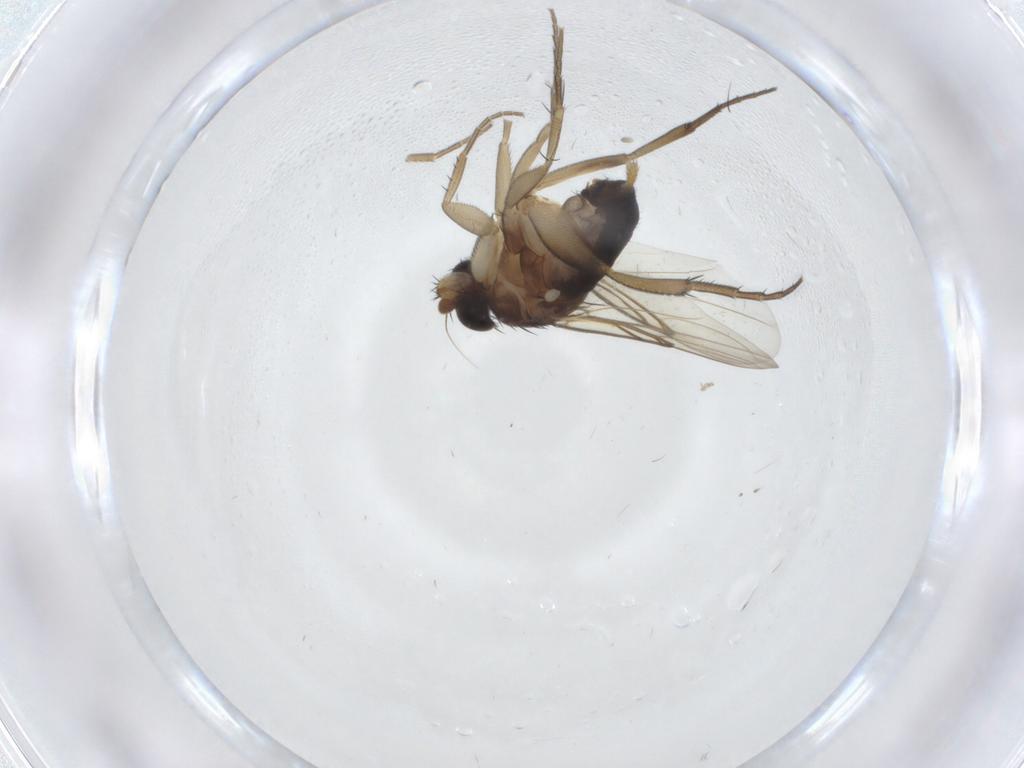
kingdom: Animalia
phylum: Arthropoda
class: Insecta
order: Diptera
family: Phoridae
